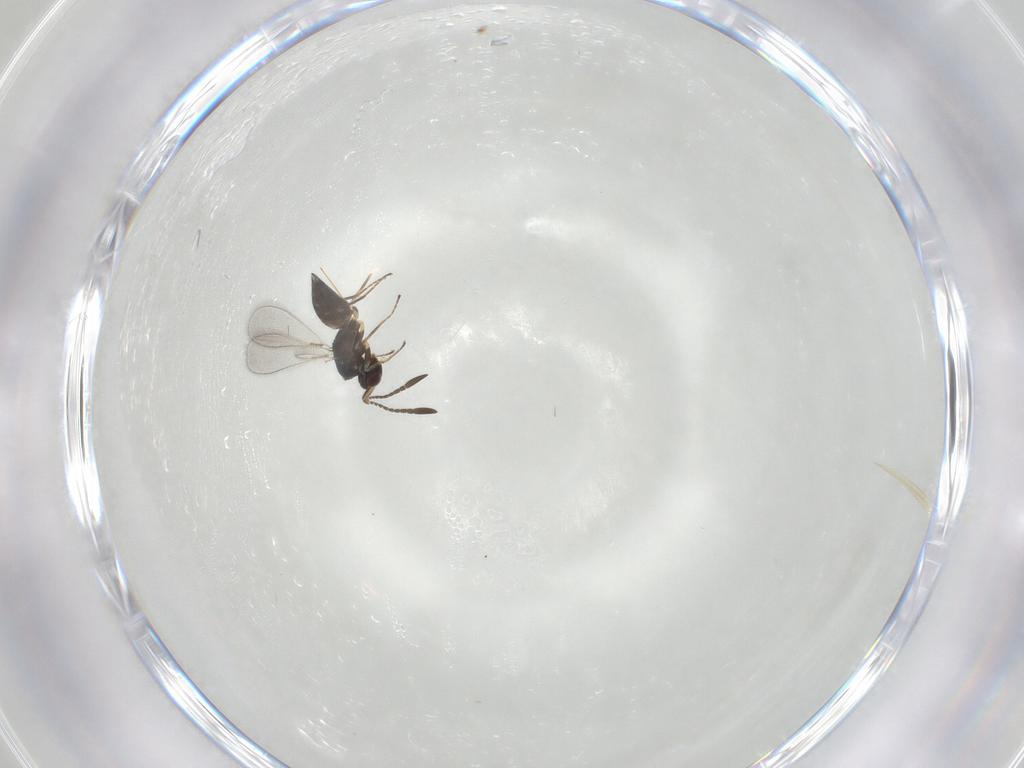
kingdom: Animalia
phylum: Arthropoda
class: Insecta
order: Hymenoptera
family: Mymaridae
